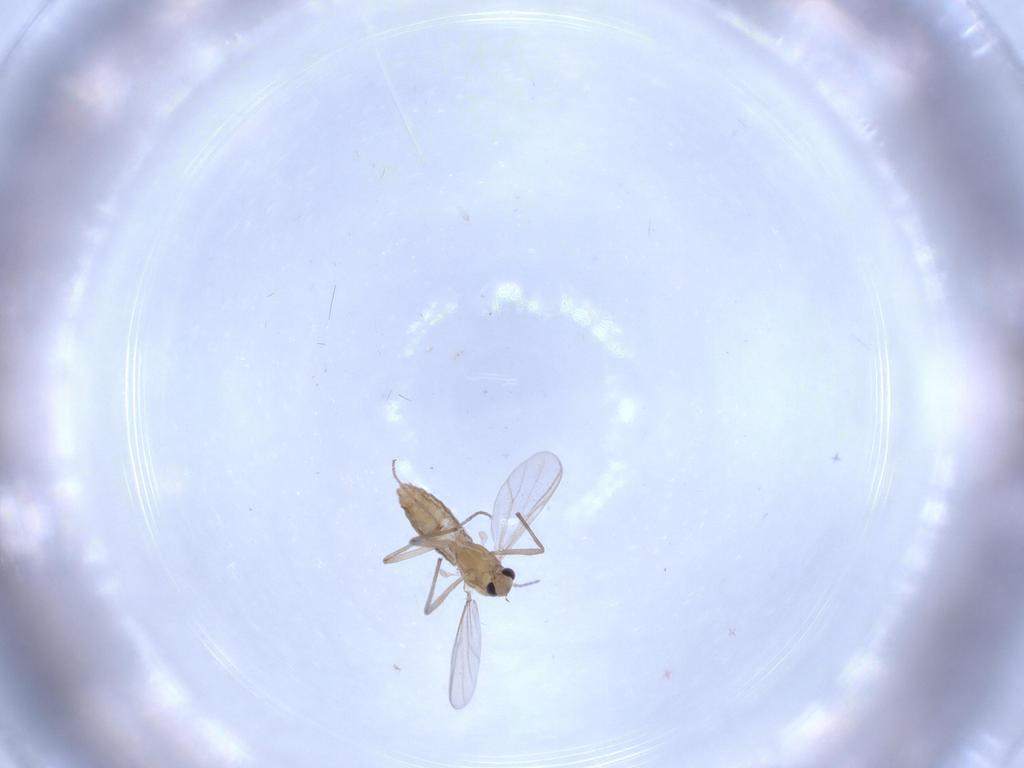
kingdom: Animalia
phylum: Arthropoda
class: Insecta
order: Diptera
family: Chironomidae
